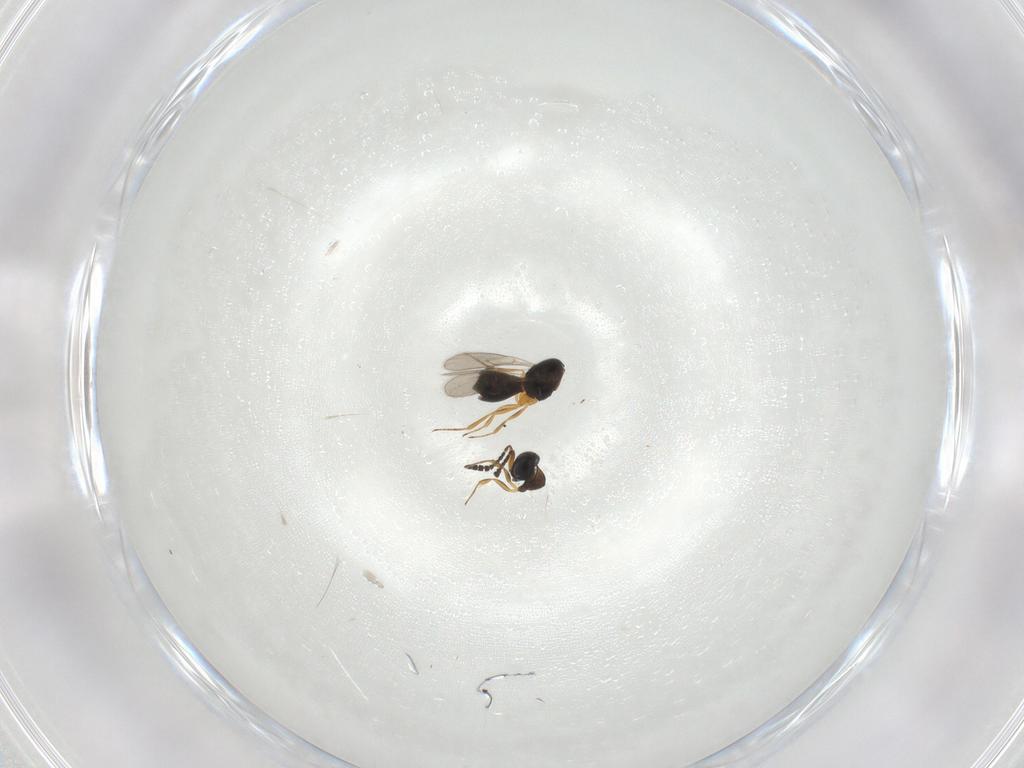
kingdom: Animalia
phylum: Arthropoda
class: Insecta
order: Hymenoptera
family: Scelionidae
